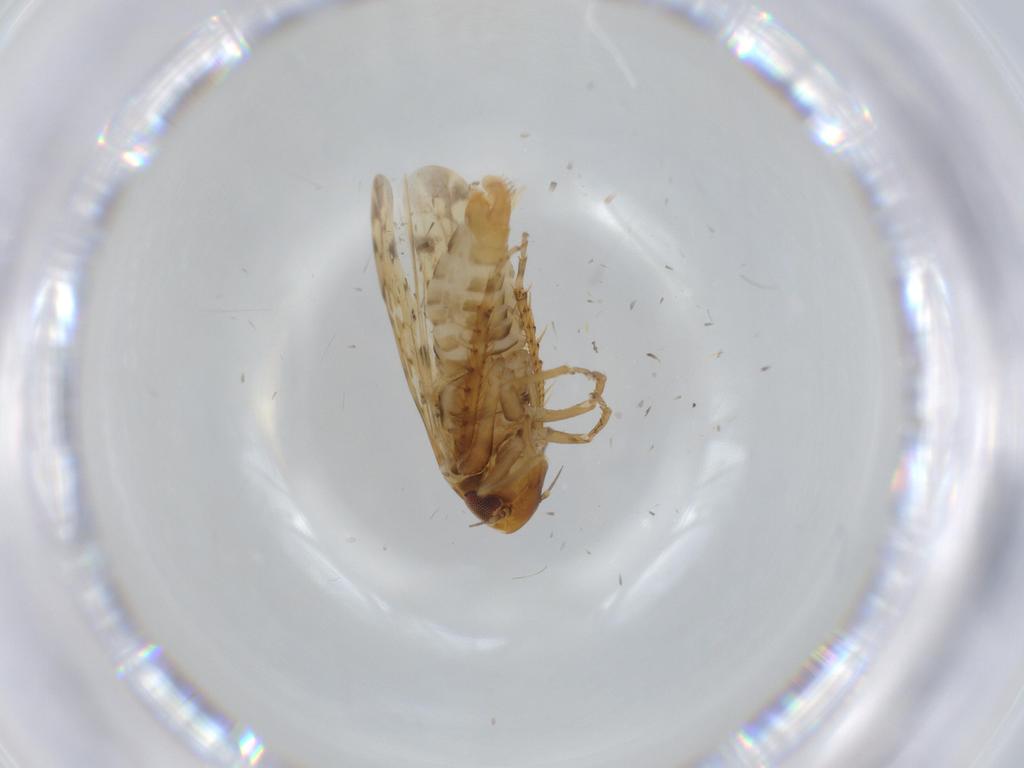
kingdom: Animalia
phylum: Arthropoda
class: Insecta
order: Hemiptera
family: Cicadellidae
